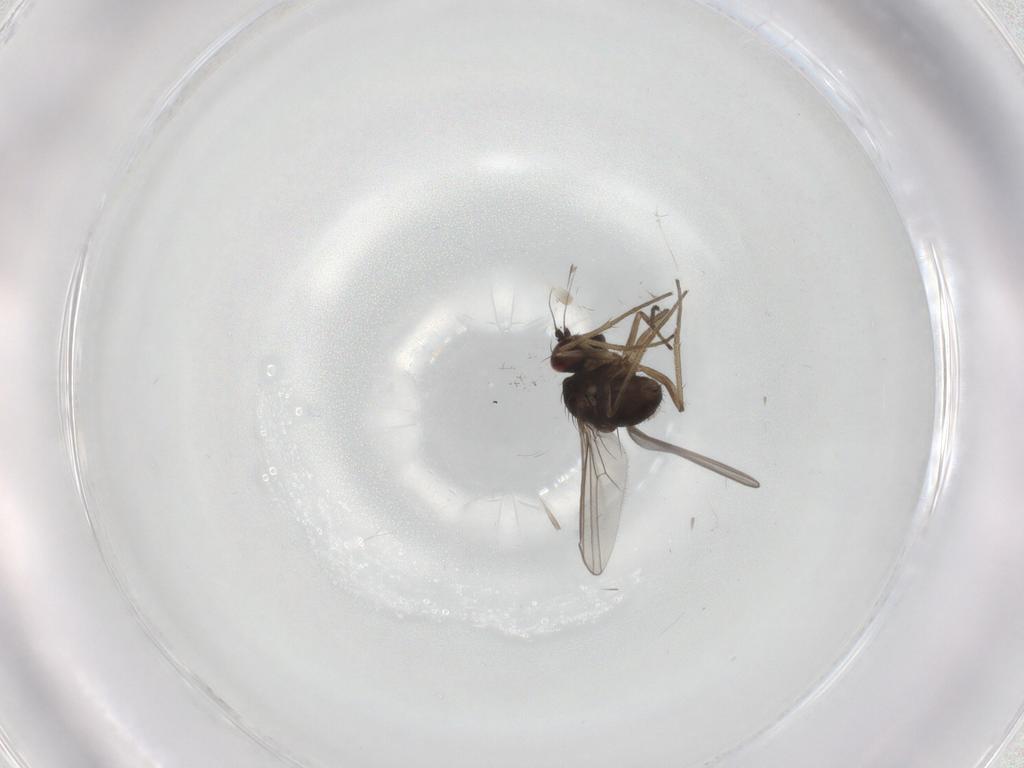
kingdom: Animalia
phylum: Arthropoda
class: Insecta
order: Diptera
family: Dolichopodidae
